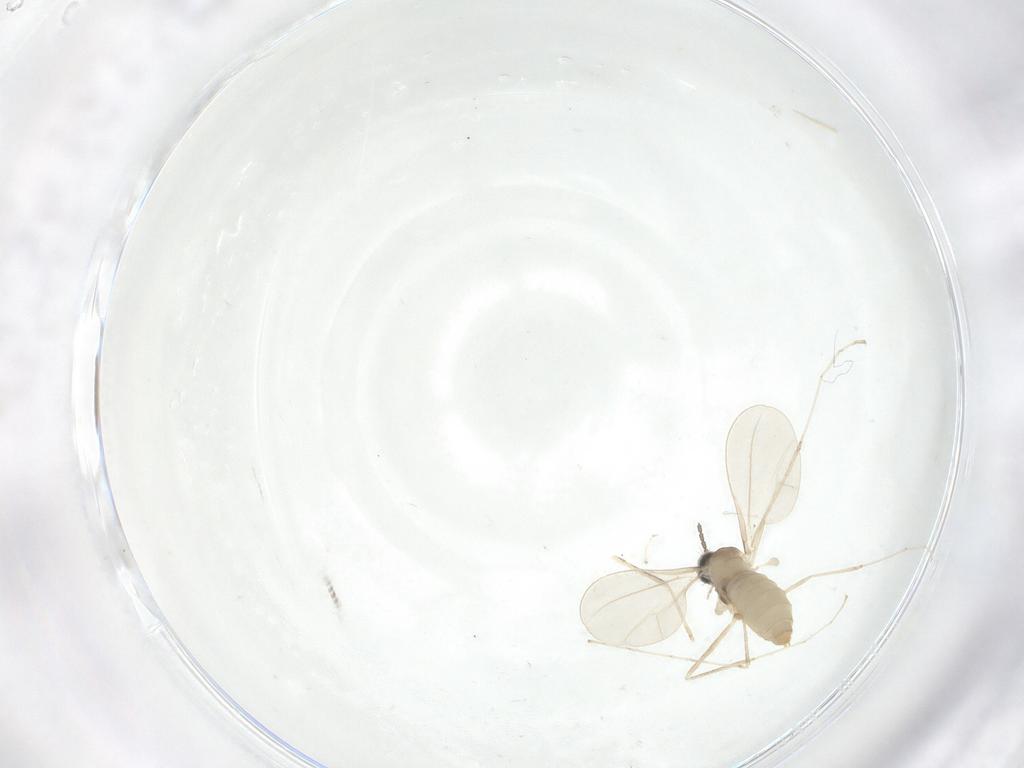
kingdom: Animalia
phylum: Arthropoda
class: Insecta
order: Diptera
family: Cecidomyiidae
